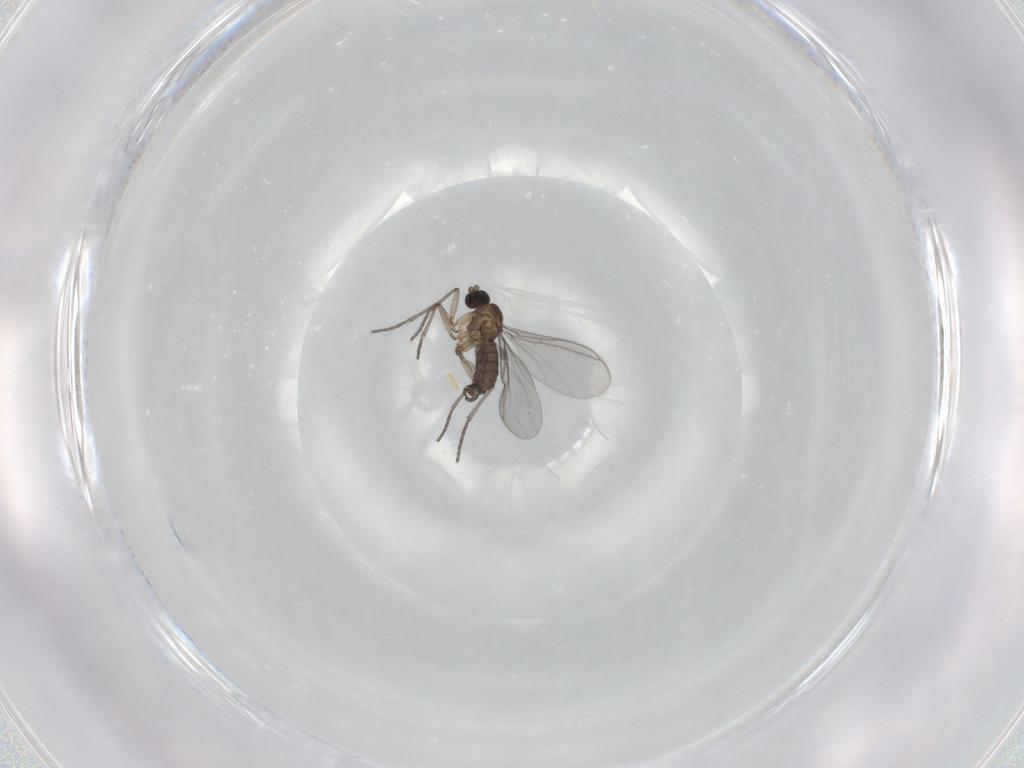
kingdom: Animalia
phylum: Arthropoda
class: Insecta
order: Diptera
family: Sciaridae
